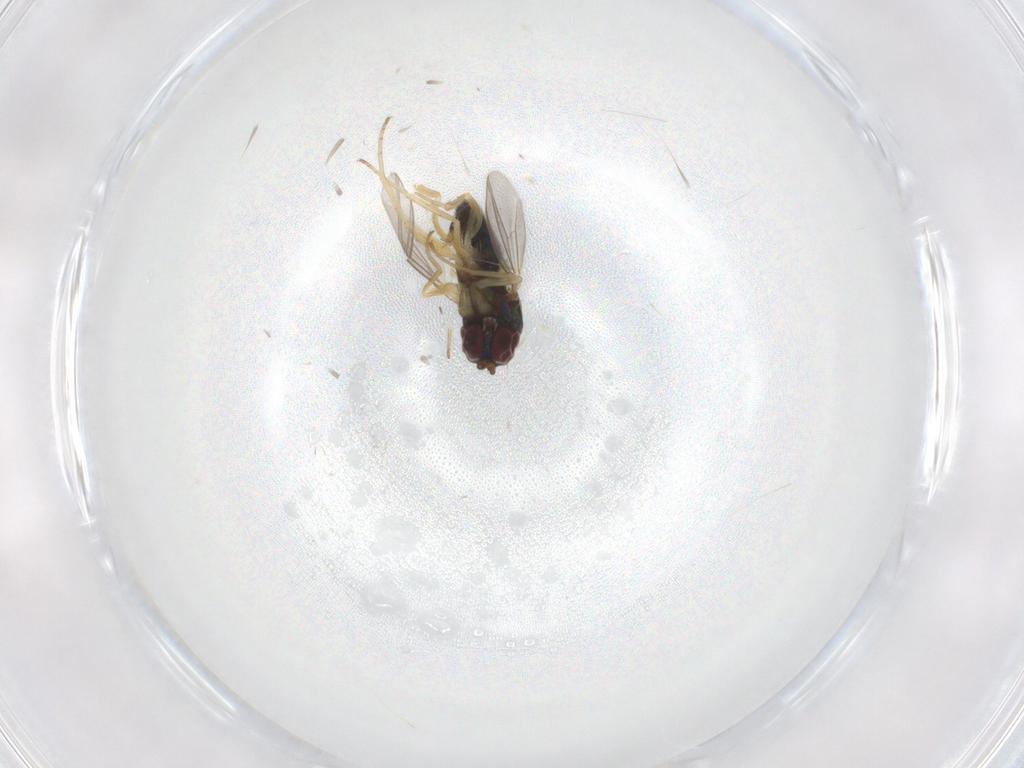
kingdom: Animalia
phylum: Arthropoda
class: Insecta
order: Diptera
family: Dolichopodidae
